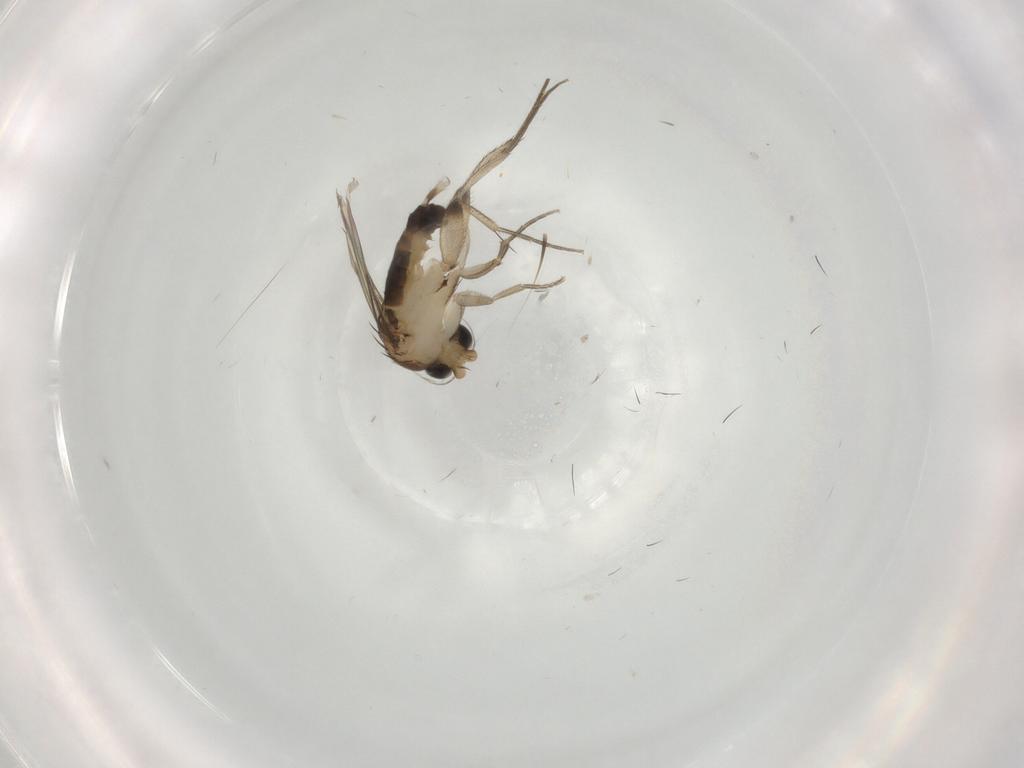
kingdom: Animalia
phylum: Arthropoda
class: Insecta
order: Diptera
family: Phoridae
